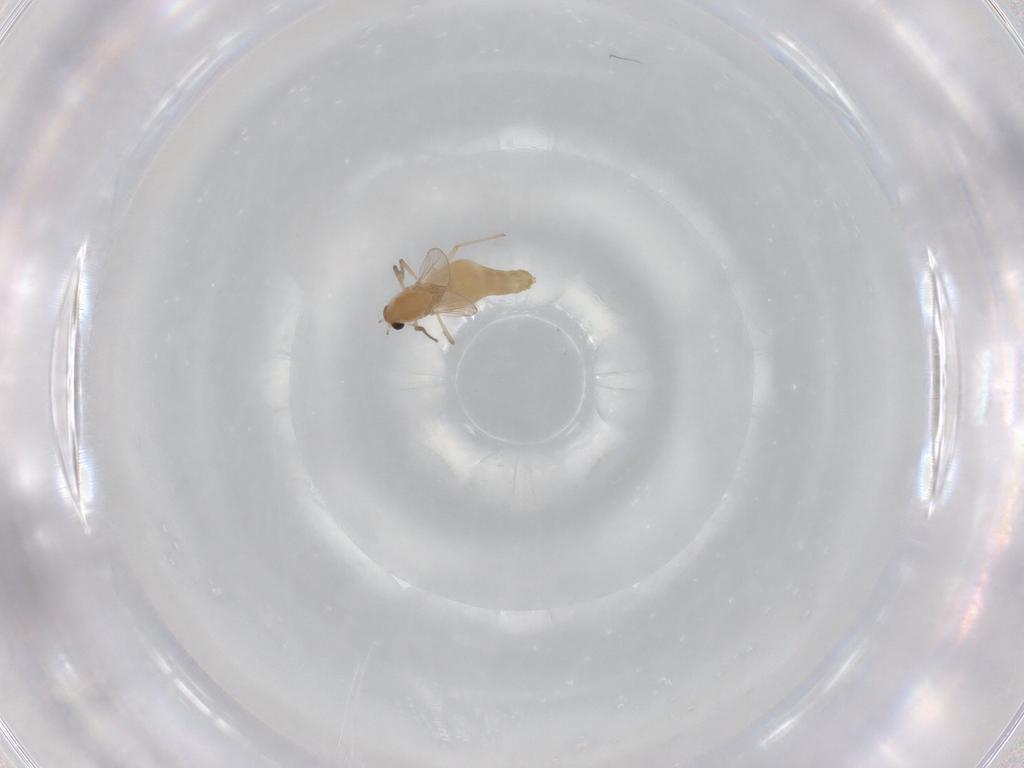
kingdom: Animalia
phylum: Arthropoda
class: Insecta
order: Diptera
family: Chironomidae
